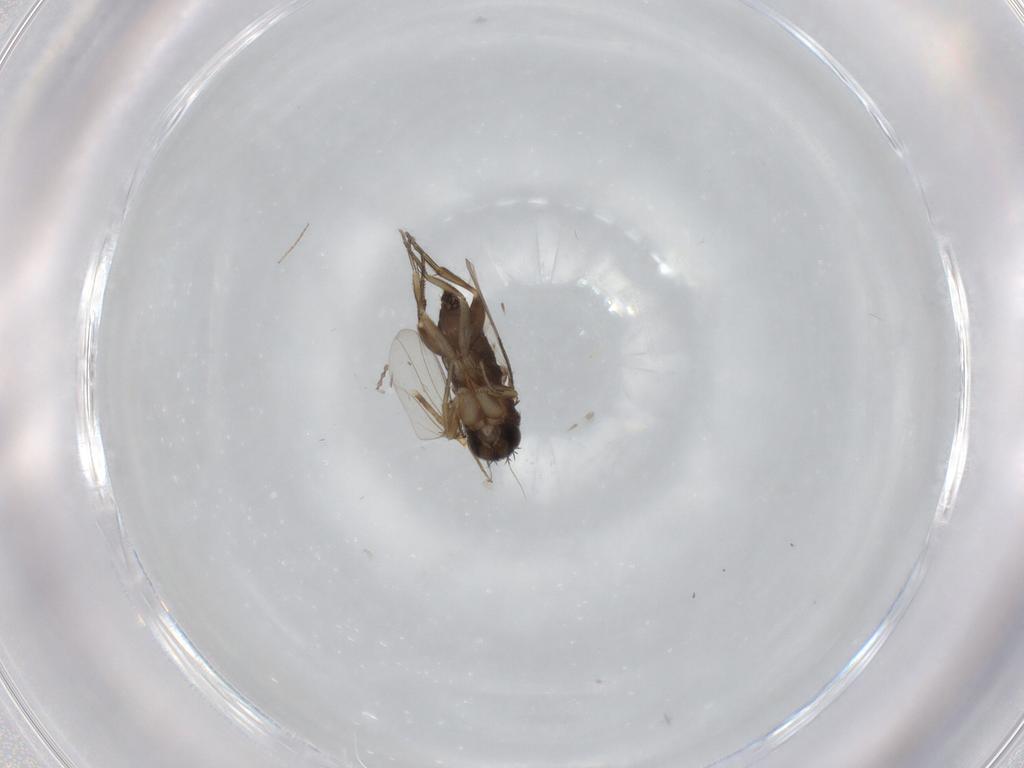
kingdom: Animalia
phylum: Arthropoda
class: Insecta
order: Diptera
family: Phoridae
